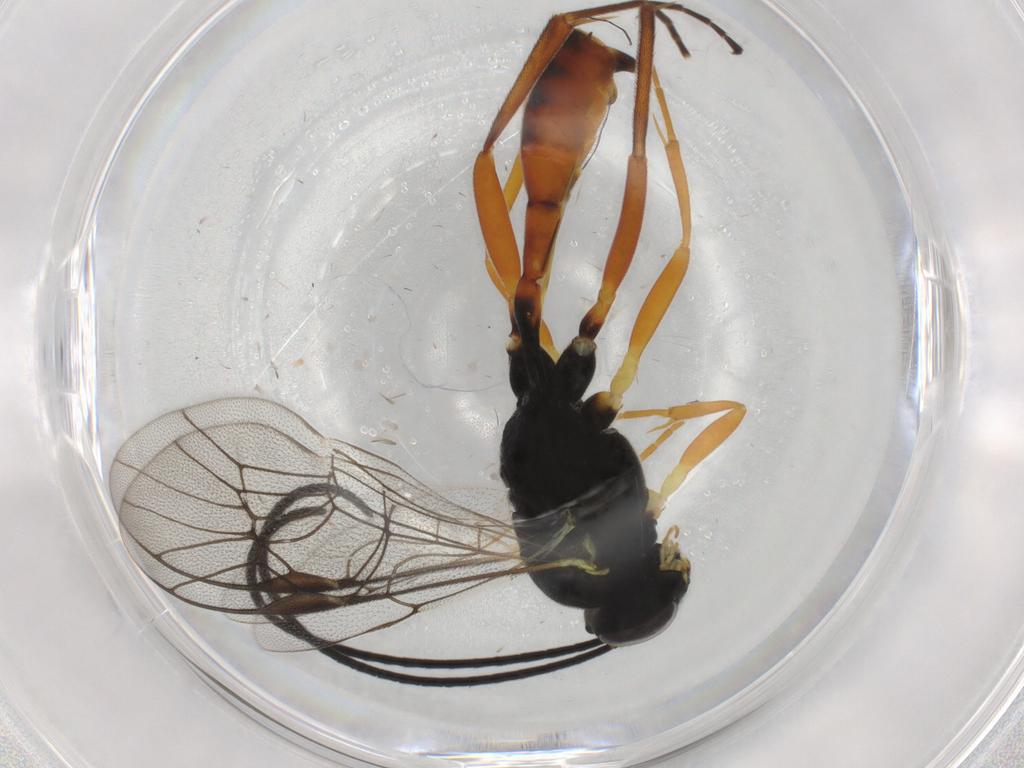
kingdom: Animalia
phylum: Arthropoda
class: Insecta
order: Hymenoptera
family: Ichneumonidae
